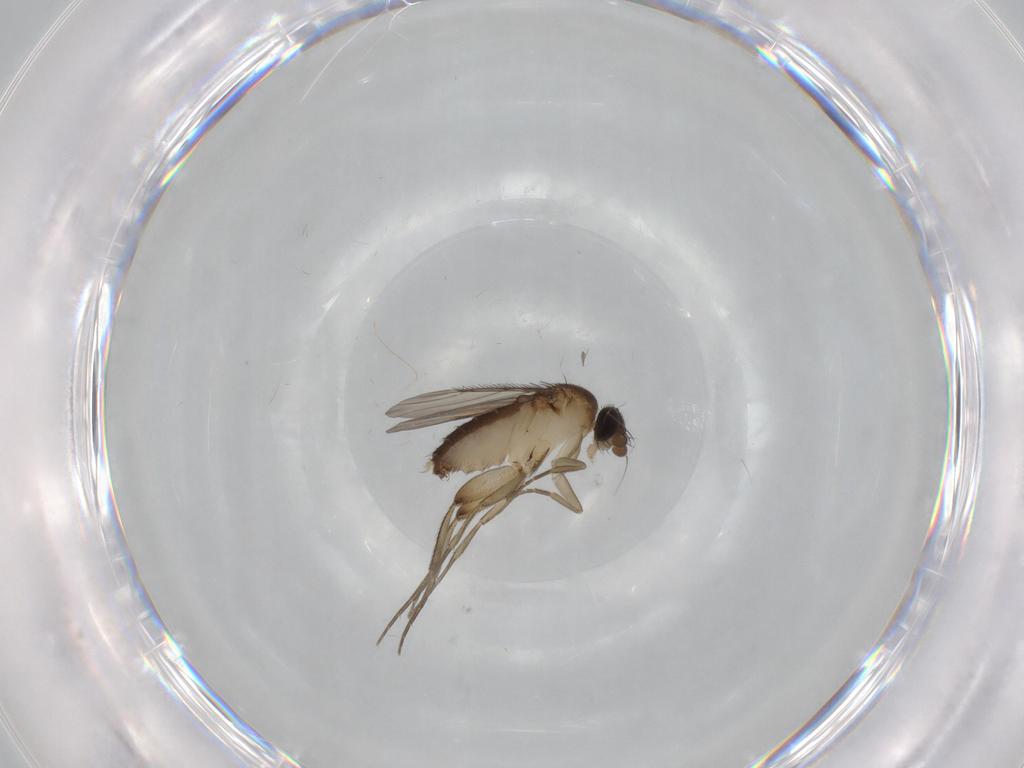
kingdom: Animalia
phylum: Arthropoda
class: Insecta
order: Diptera
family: Phoridae
